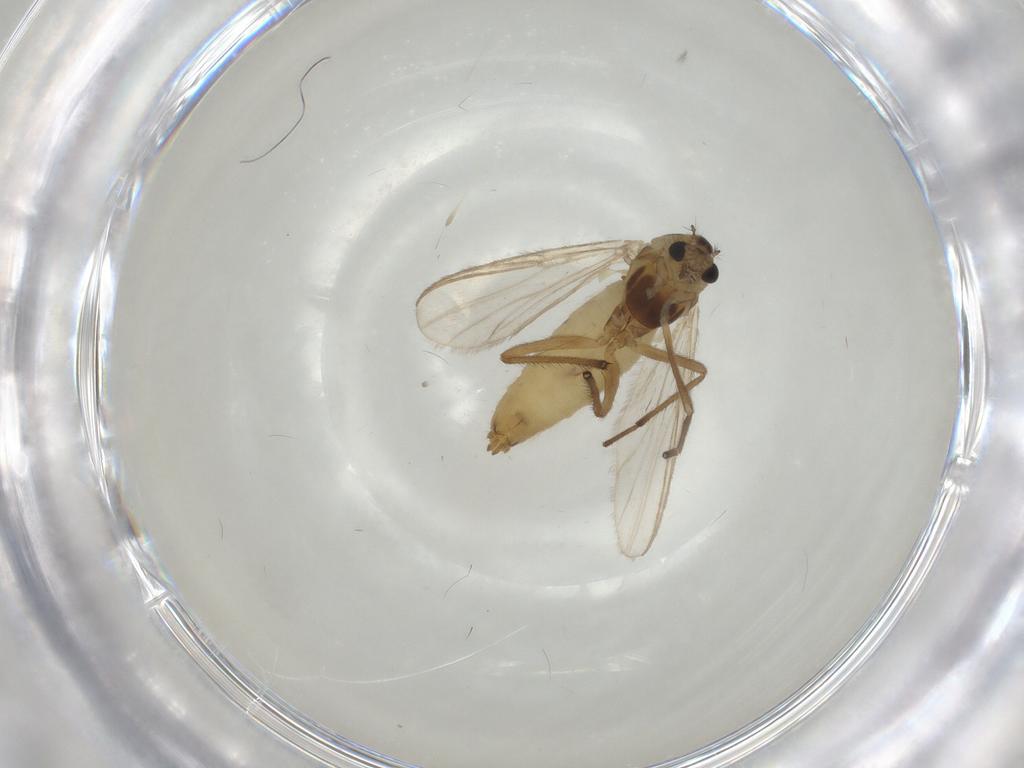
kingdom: Animalia
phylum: Arthropoda
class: Insecta
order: Diptera
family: Chironomidae
